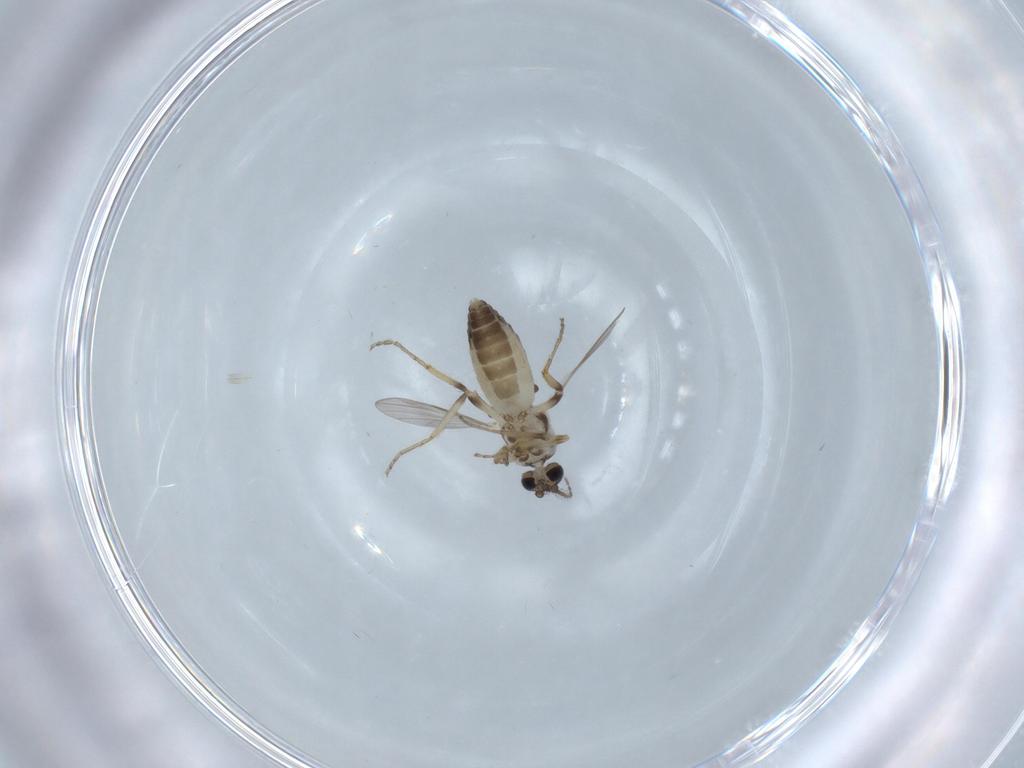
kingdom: Animalia
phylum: Arthropoda
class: Insecta
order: Diptera
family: Ceratopogonidae
